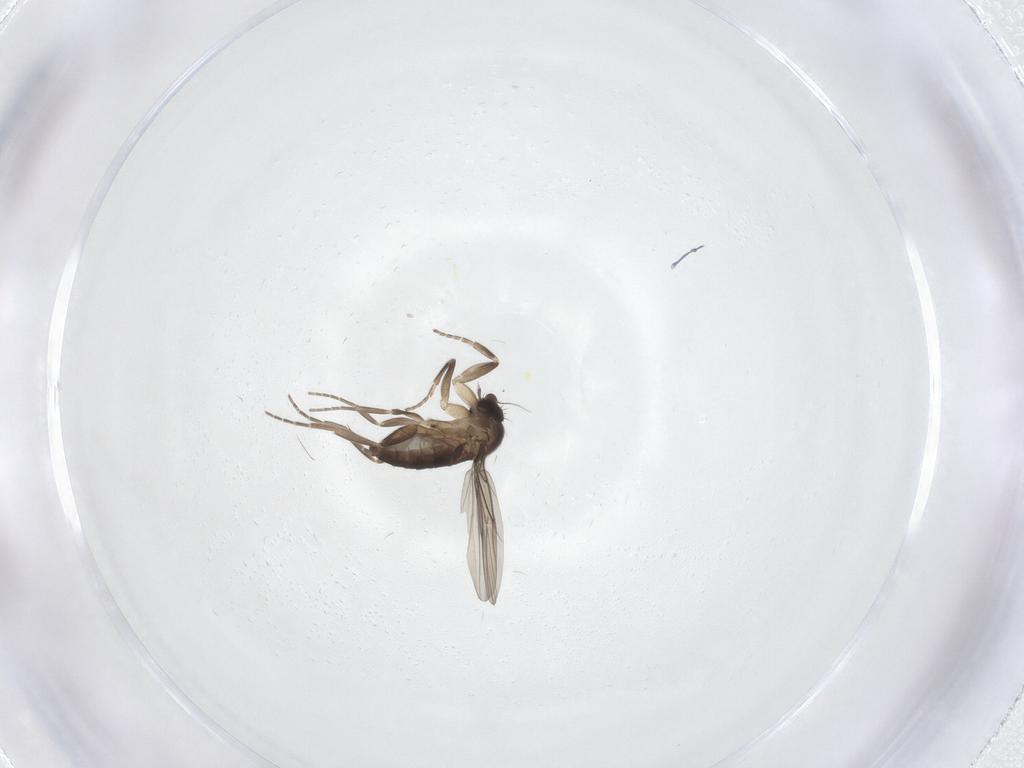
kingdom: Animalia
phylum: Arthropoda
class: Insecta
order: Diptera
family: Phoridae
